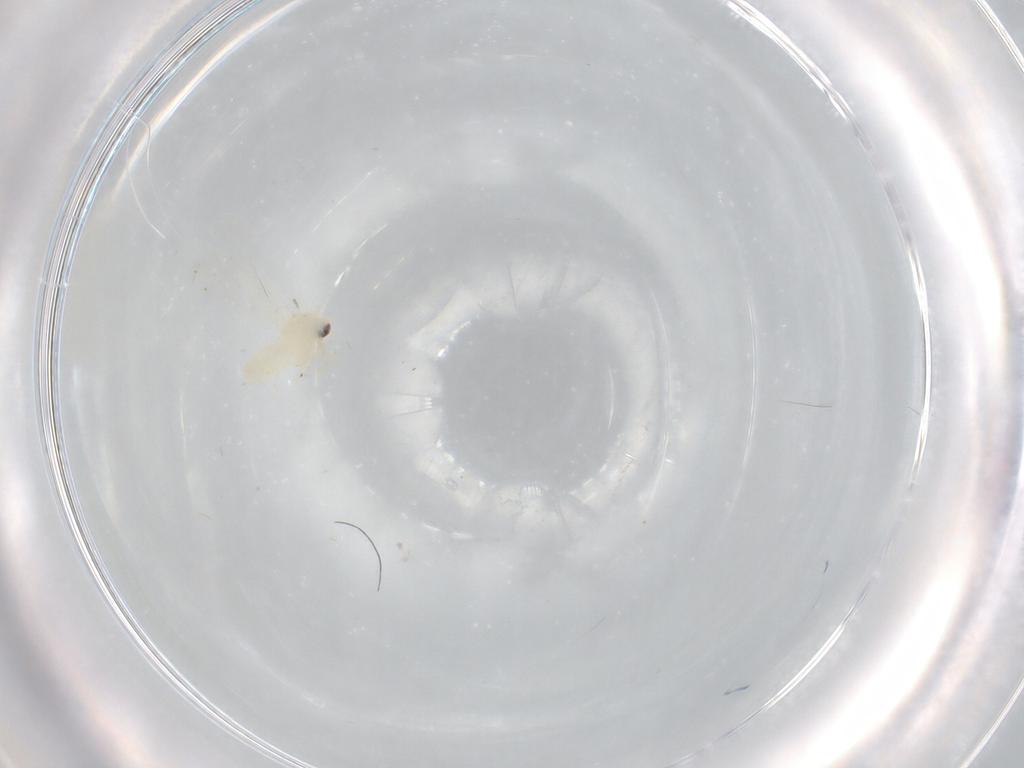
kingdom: Animalia
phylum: Arthropoda
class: Insecta
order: Hemiptera
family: Aleyrodidae
